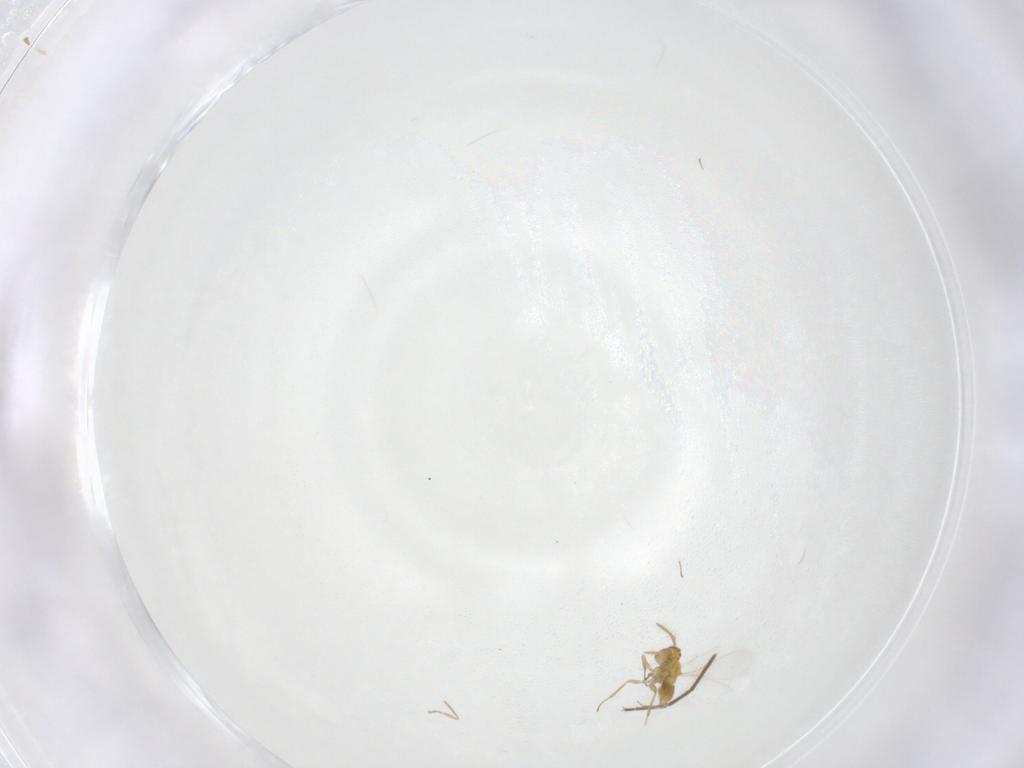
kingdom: Animalia
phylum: Arthropoda
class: Insecta
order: Hymenoptera
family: Aphelinidae
